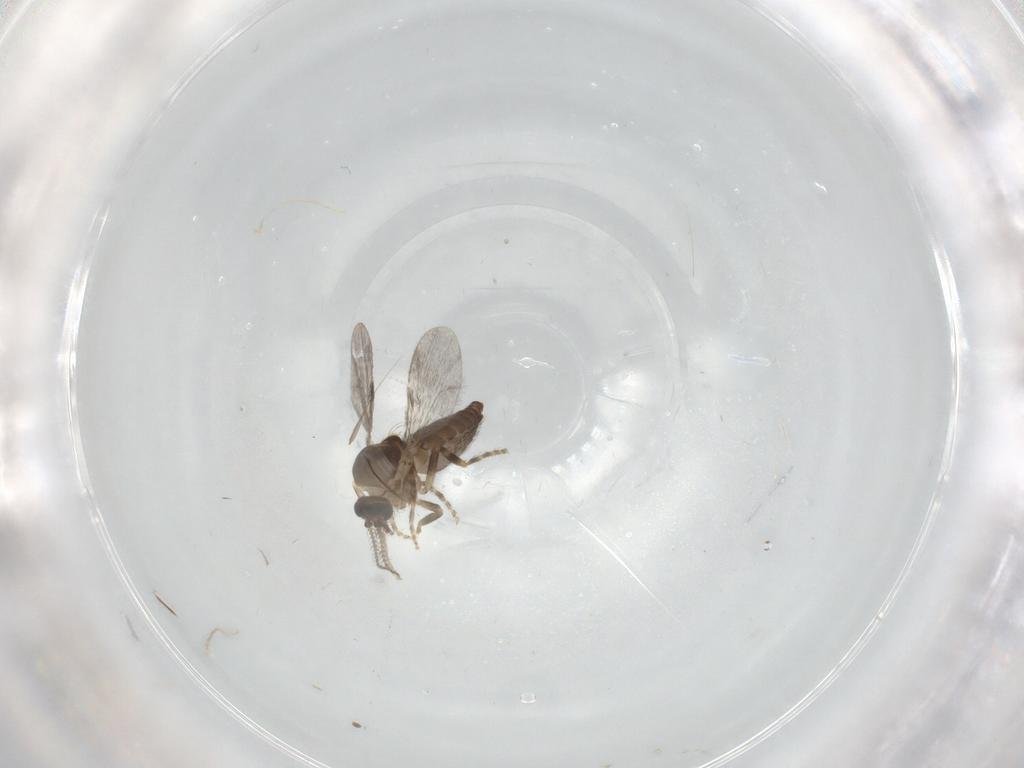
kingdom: Animalia
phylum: Arthropoda
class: Insecta
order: Diptera
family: Ceratopogonidae
